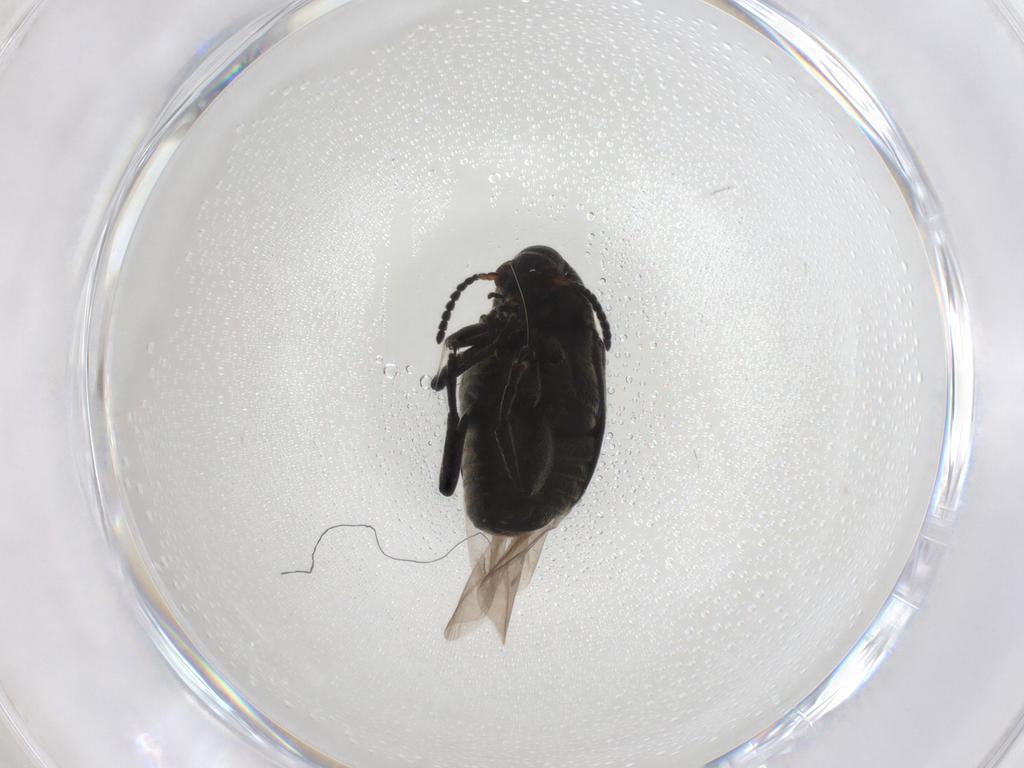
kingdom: Animalia
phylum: Arthropoda
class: Insecta
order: Coleoptera
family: Chrysomelidae
